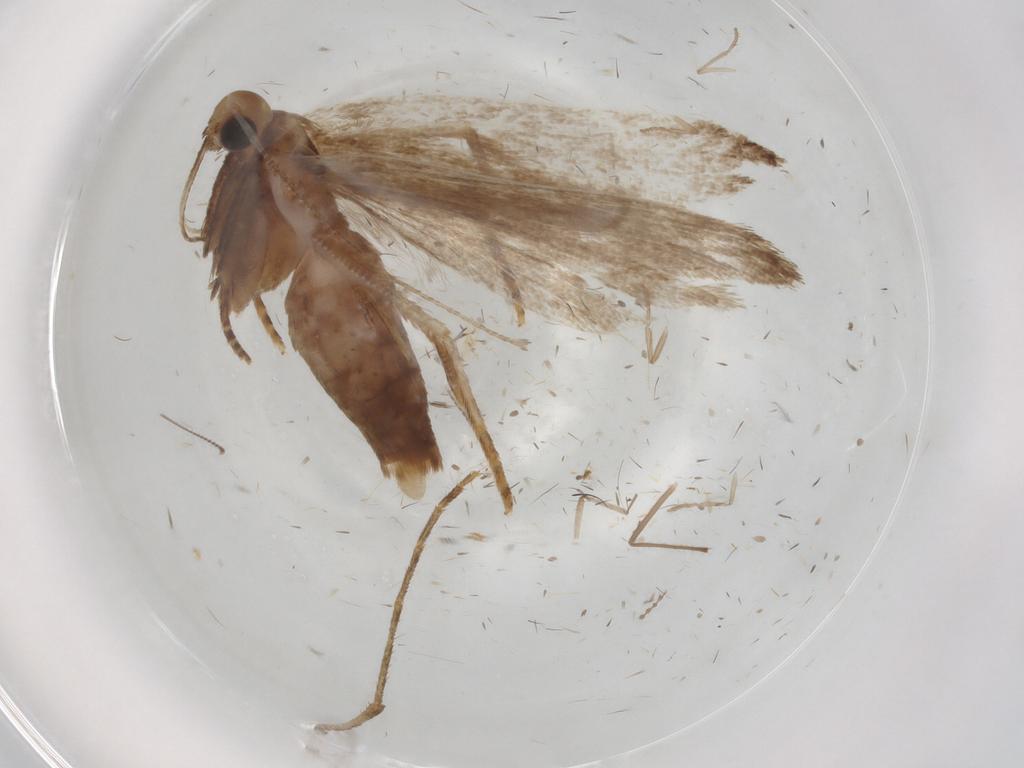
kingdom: Animalia
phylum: Arthropoda
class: Insecta
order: Lepidoptera
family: Gelechiidae
